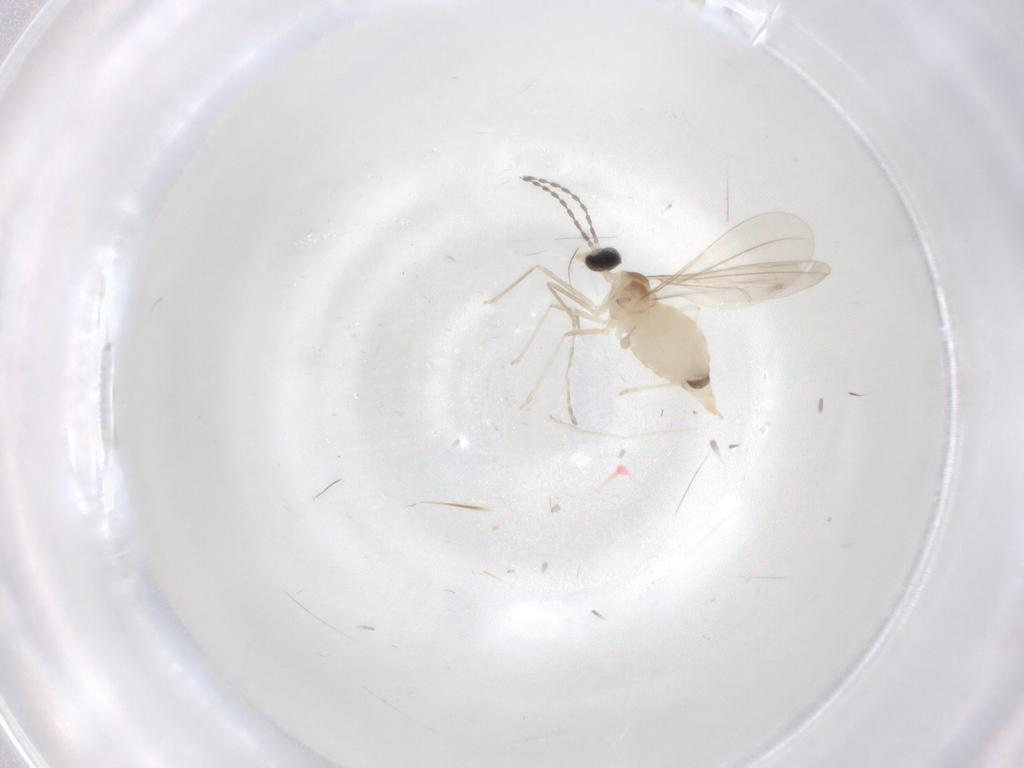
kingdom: Animalia
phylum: Arthropoda
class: Insecta
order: Diptera
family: Cecidomyiidae
